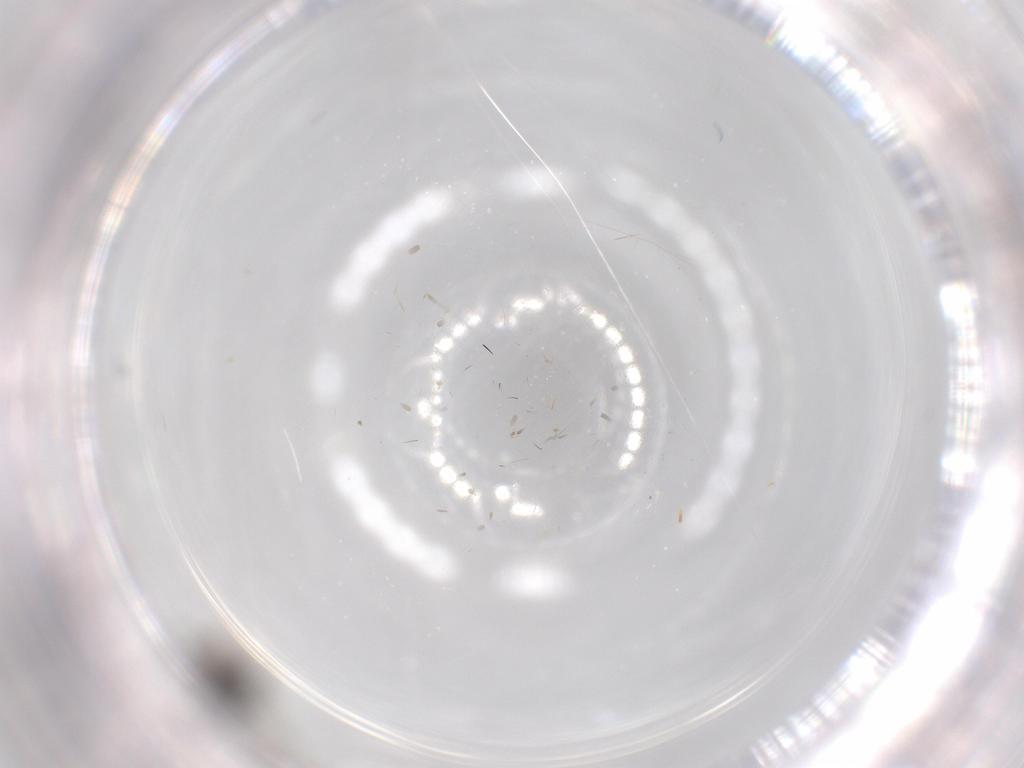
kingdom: Animalia
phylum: Arthropoda
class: Insecta
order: Hymenoptera
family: Figitidae
